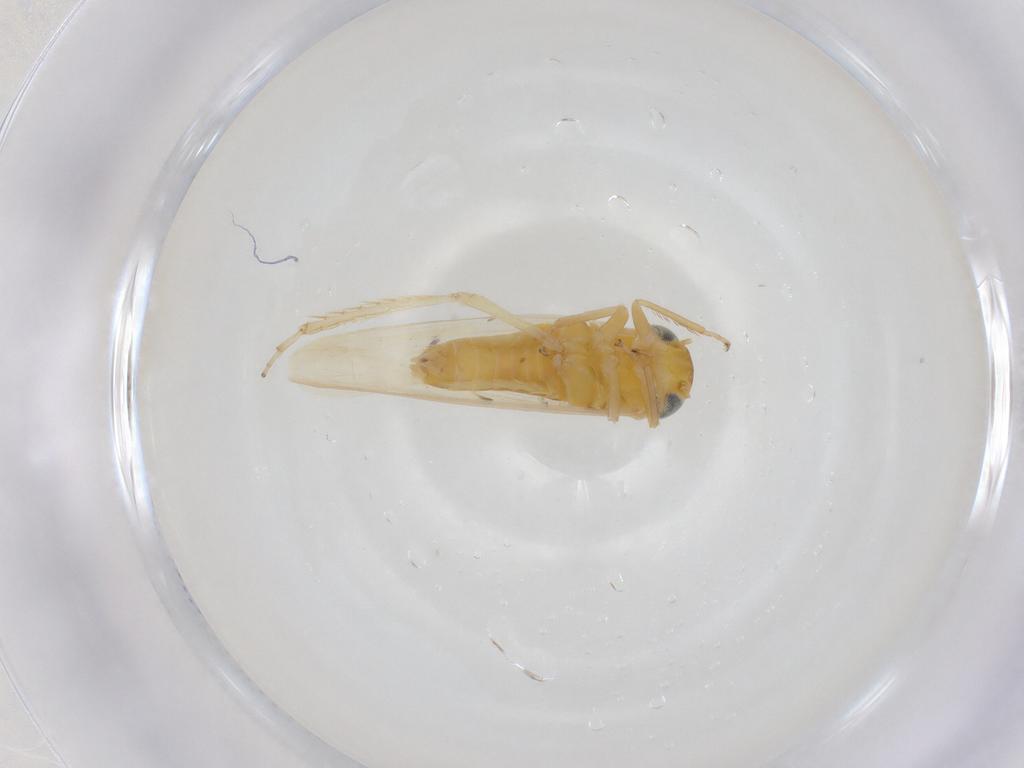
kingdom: Animalia
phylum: Arthropoda
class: Insecta
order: Hemiptera
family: Cicadellidae
